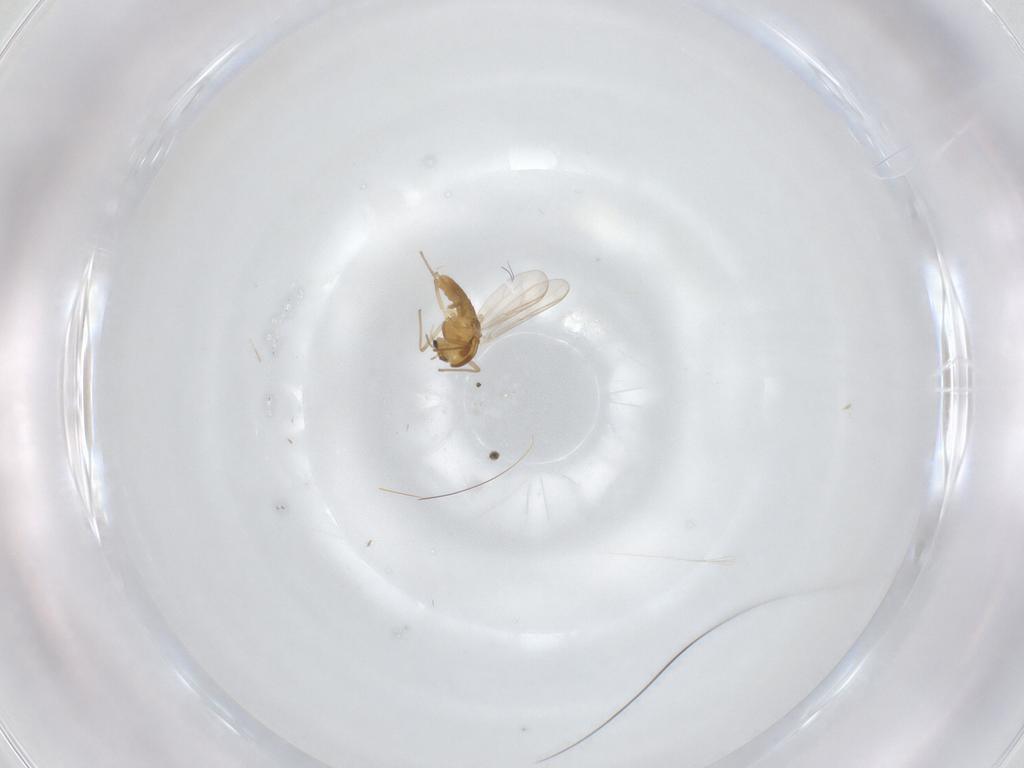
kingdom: Animalia
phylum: Arthropoda
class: Insecta
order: Diptera
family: Chironomidae
